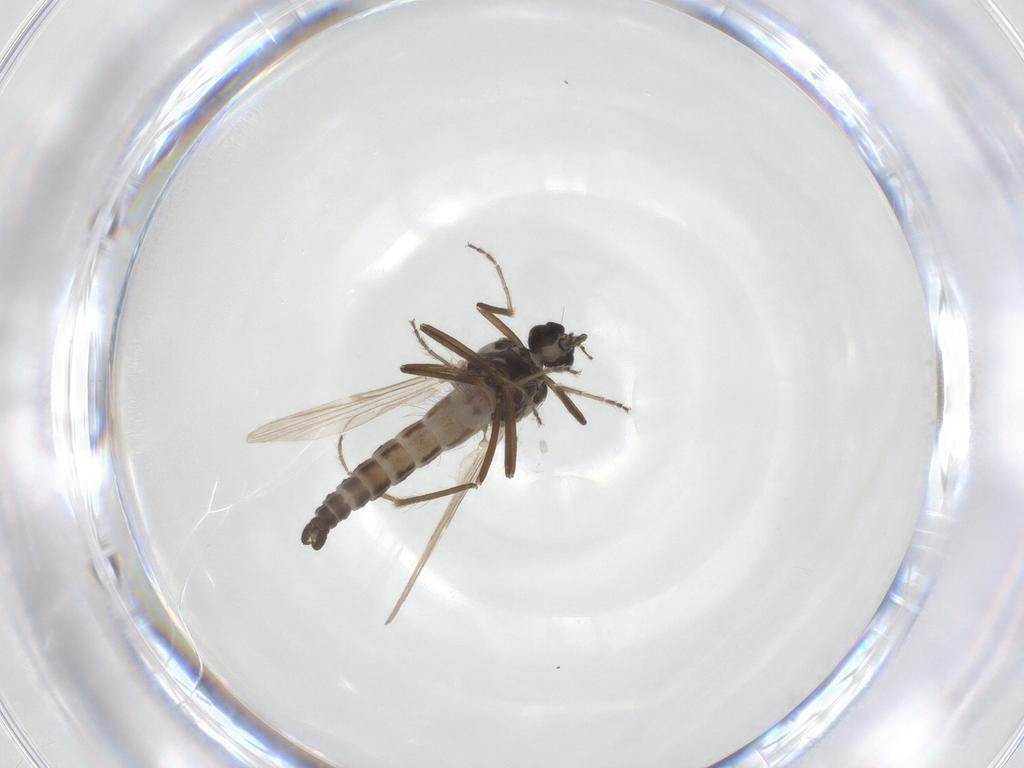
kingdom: Animalia
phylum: Arthropoda
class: Insecta
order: Diptera
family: Ceratopogonidae
